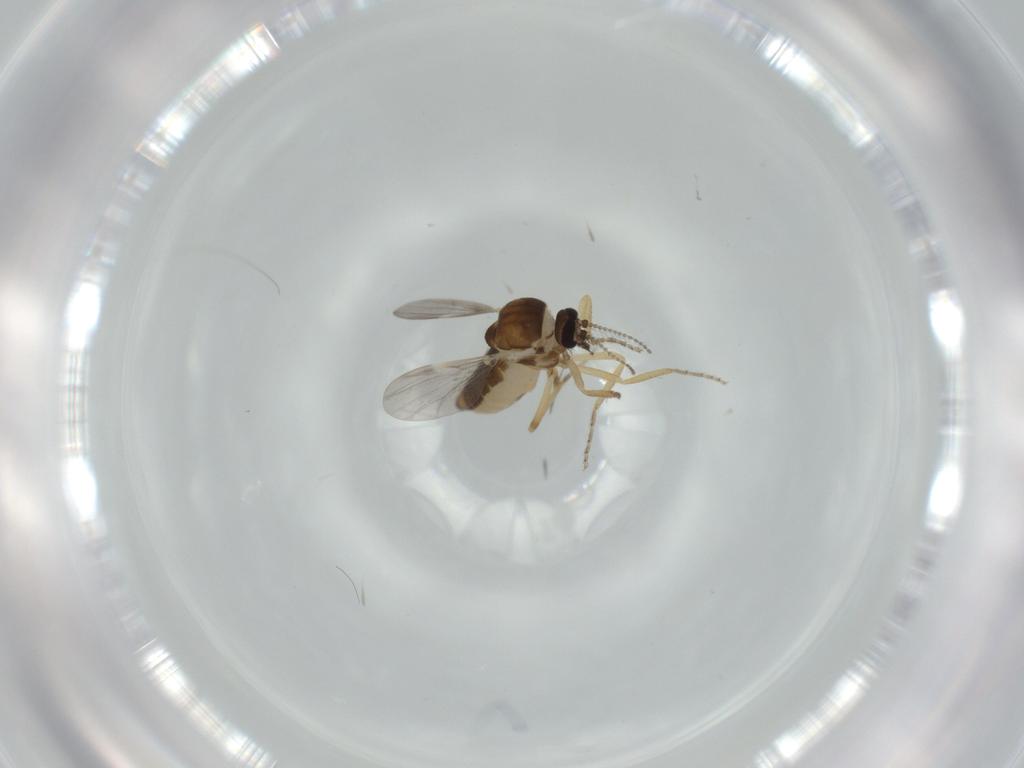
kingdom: Animalia
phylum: Arthropoda
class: Insecta
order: Diptera
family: Ceratopogonidae
